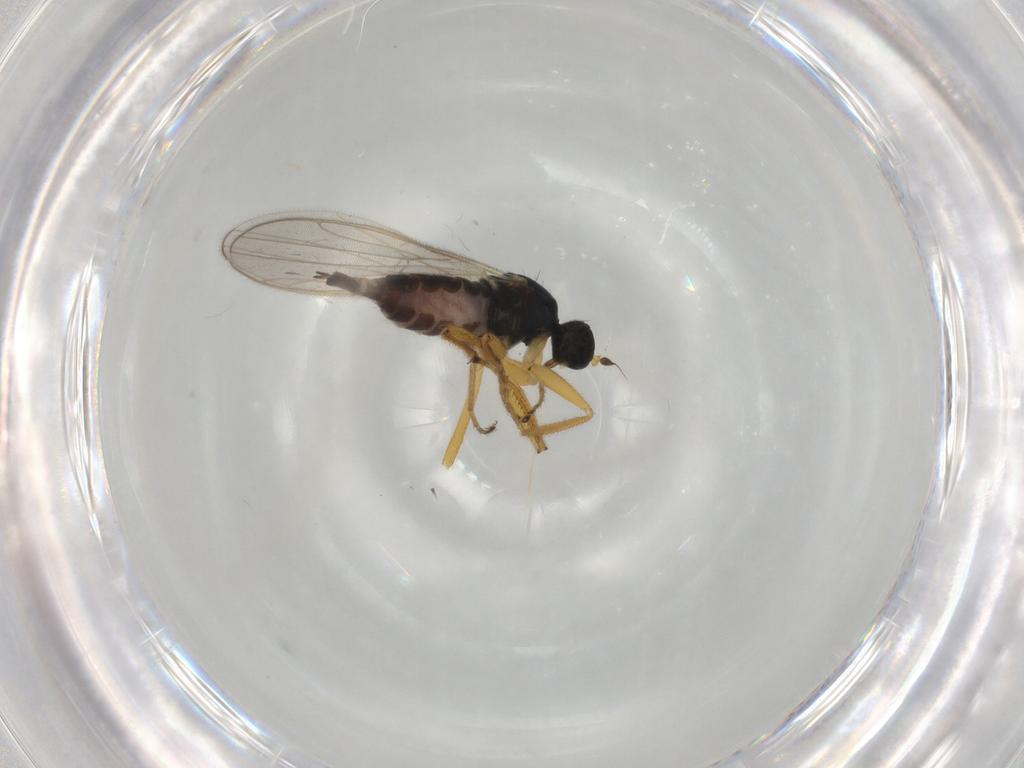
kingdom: Animalia
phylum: Arthropoda
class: Insecta
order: Diptera
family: Hybotidae
